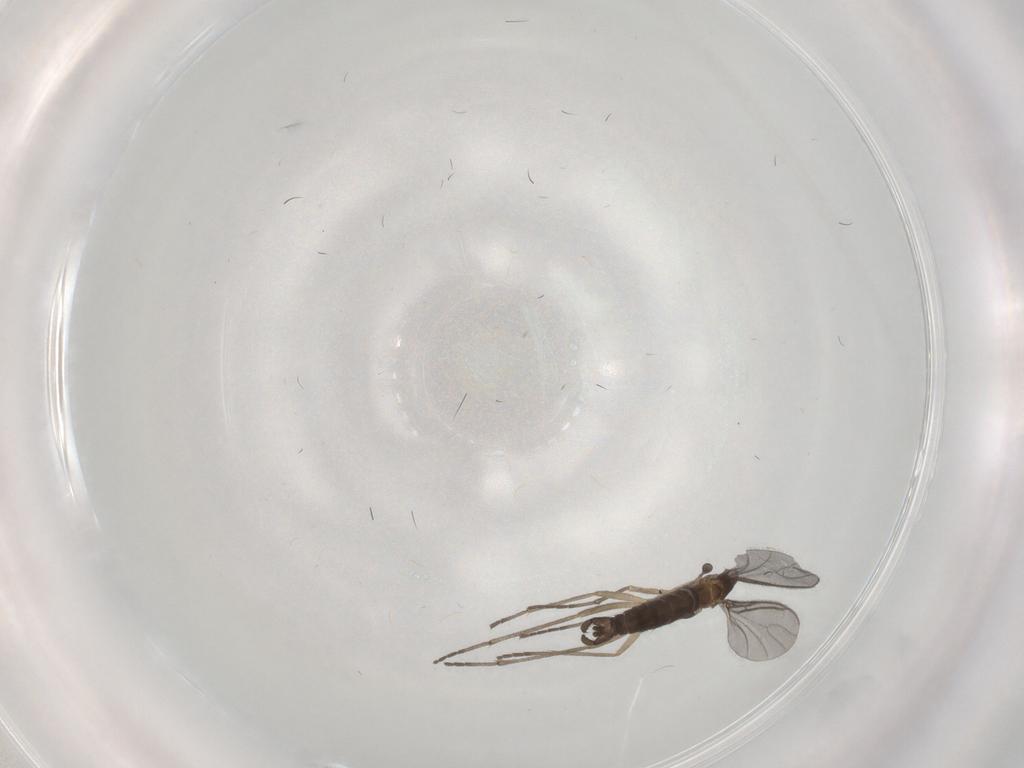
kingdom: Animalia
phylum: Arthropoda
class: Insecta
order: Diptera
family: Sciaridae
